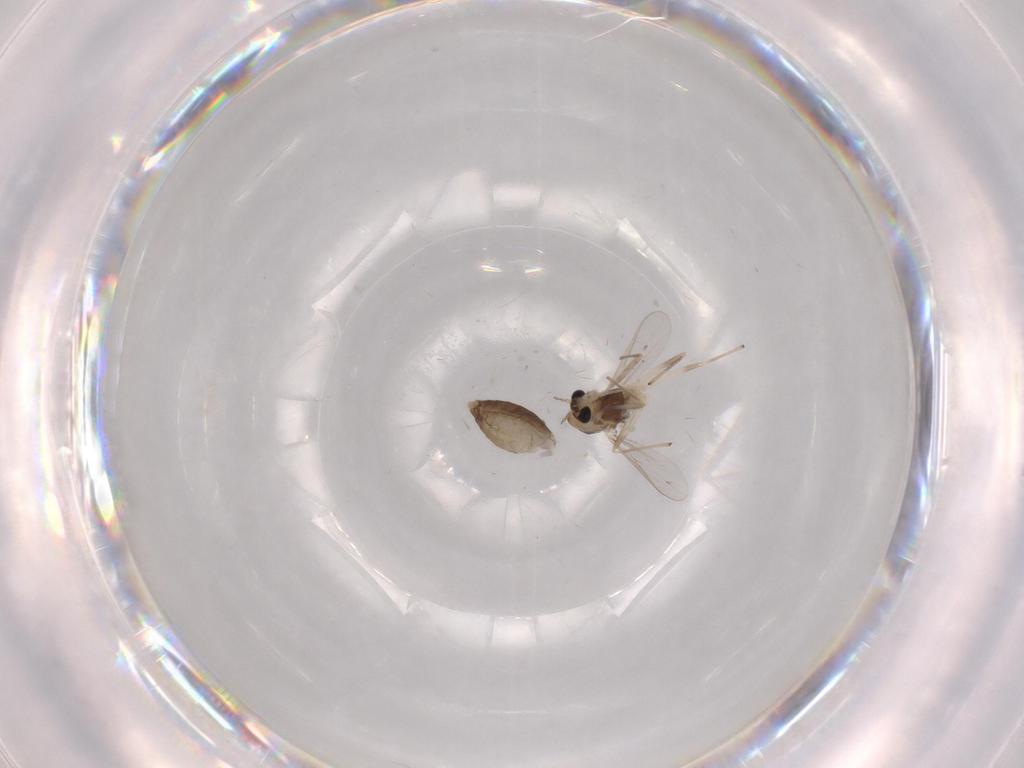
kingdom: Animalia
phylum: Arthropoda
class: Insecta
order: Diptera
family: Chironomidae
